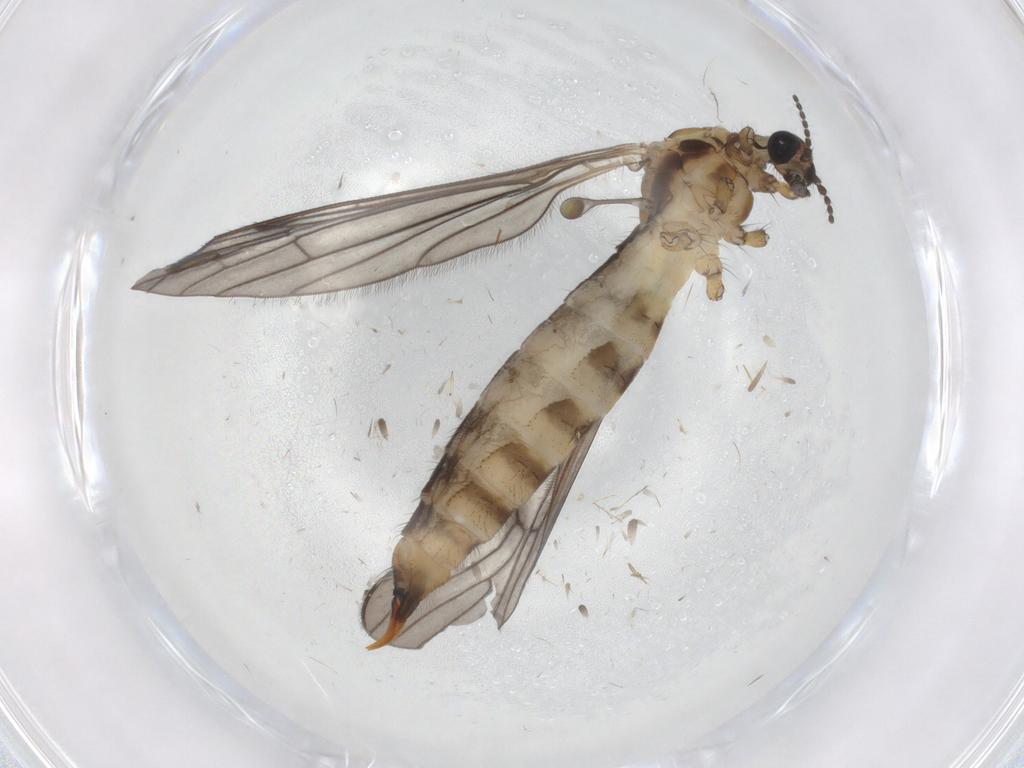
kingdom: Animalia
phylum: Arthropoda
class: Insecta
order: Diptera
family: Limoniidae
